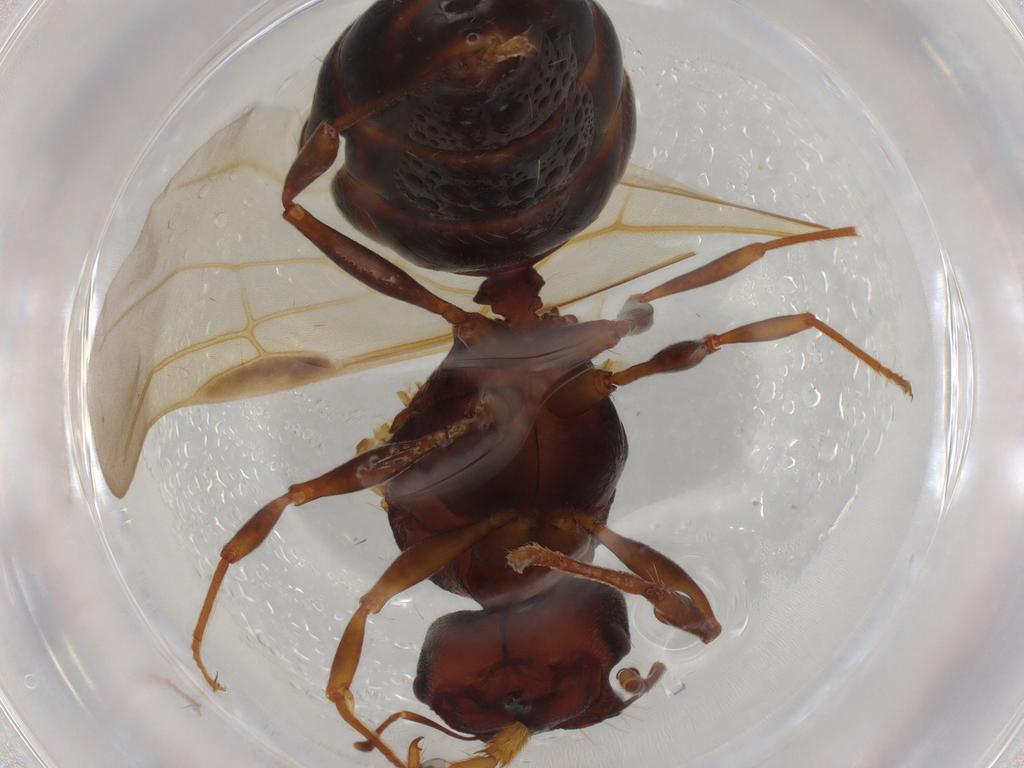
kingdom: Animalia
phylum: Arthropoda
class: Insecta
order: Hymenoptera
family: Formicidae
